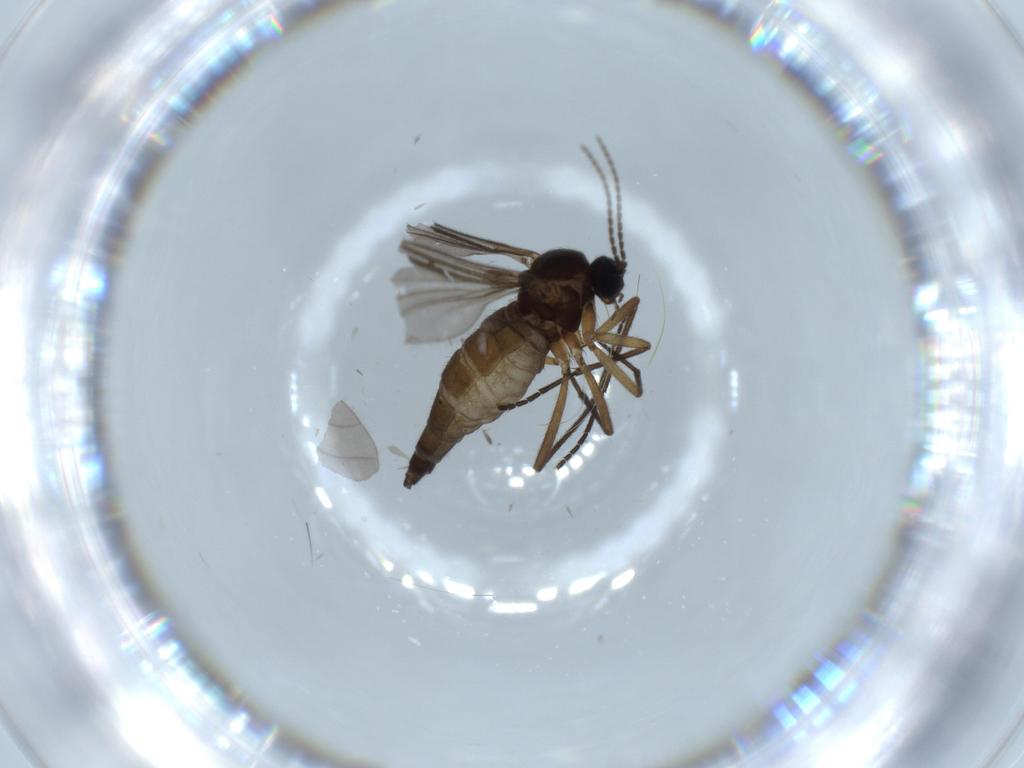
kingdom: Animalia
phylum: Arthropoda
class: Insecta
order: Diptera
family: Sciaridae
